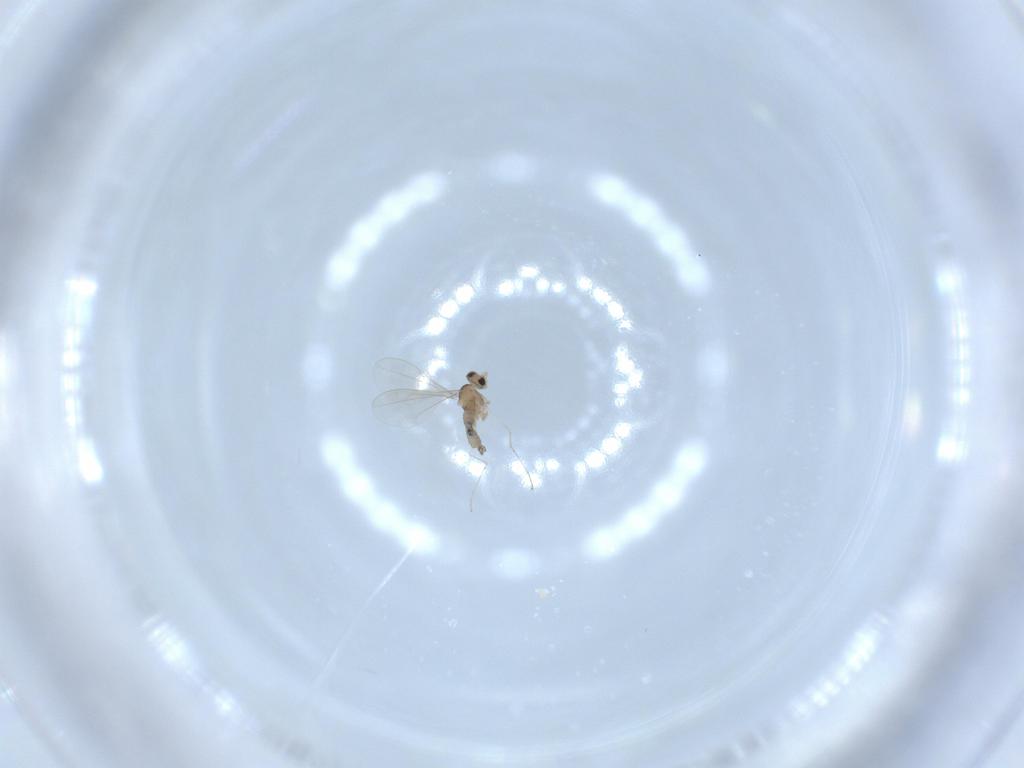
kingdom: Animalia
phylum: Arthropoda
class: Insecta
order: Diptera
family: Cecidomyiidae
